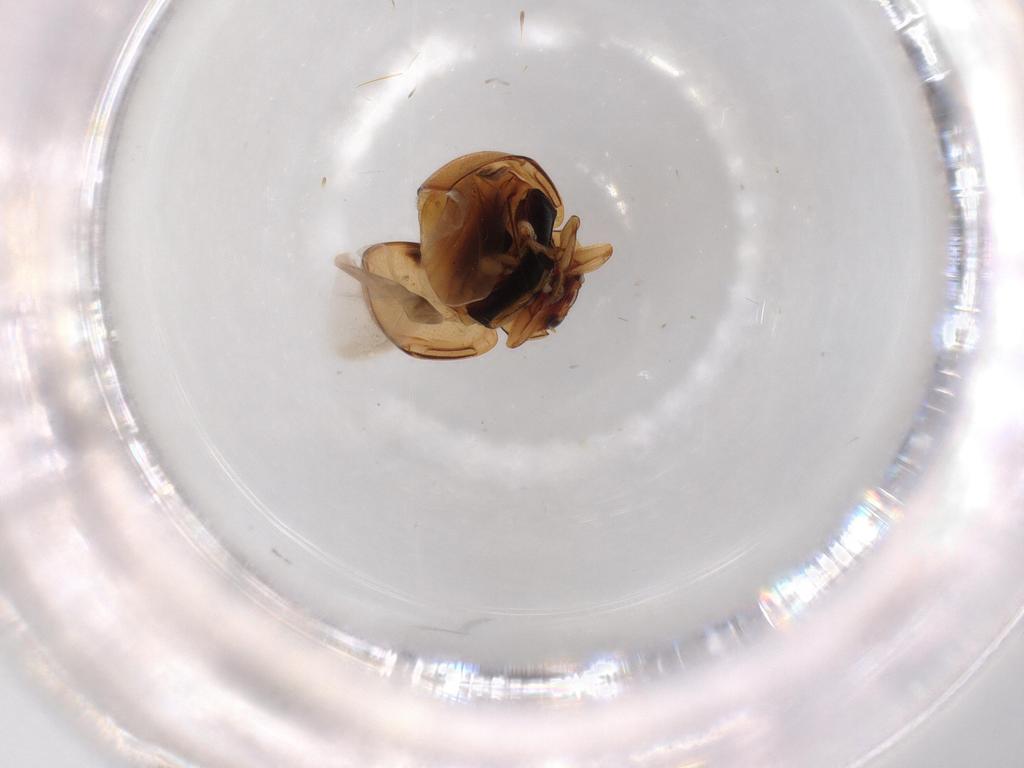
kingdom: Animalia
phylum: Arthropoda
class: Insecta
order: Coleoptera
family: Coccinellidae
